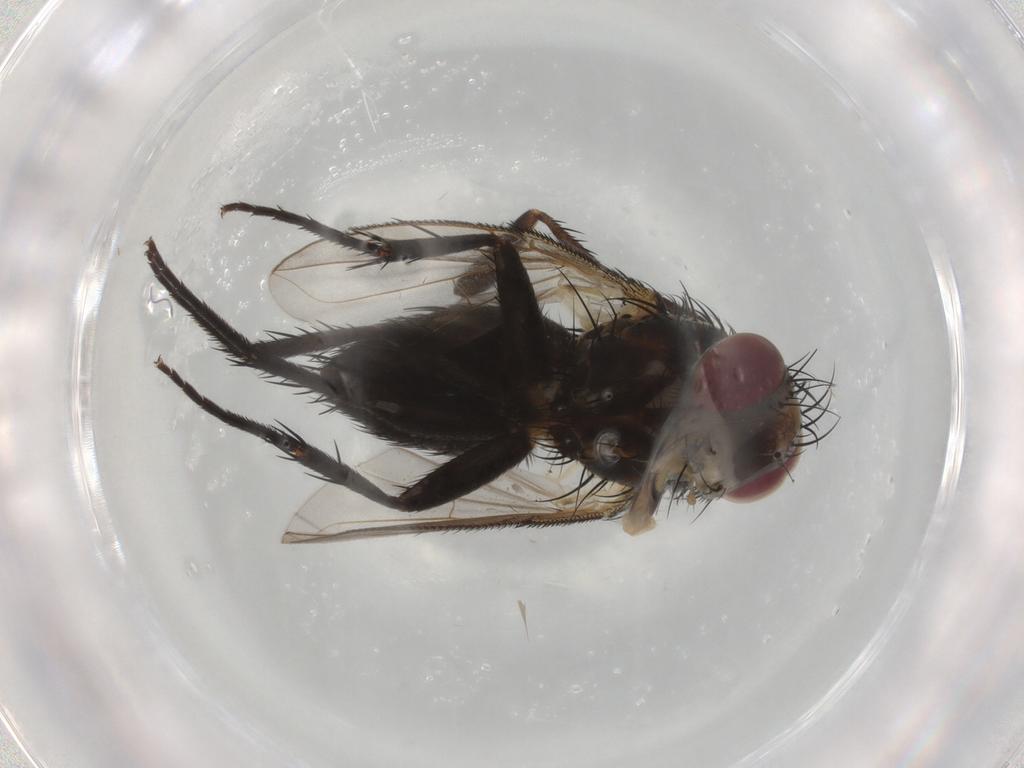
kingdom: Animalia
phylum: Arthropoda
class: Insecta
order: Diptera
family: Tachinidae
